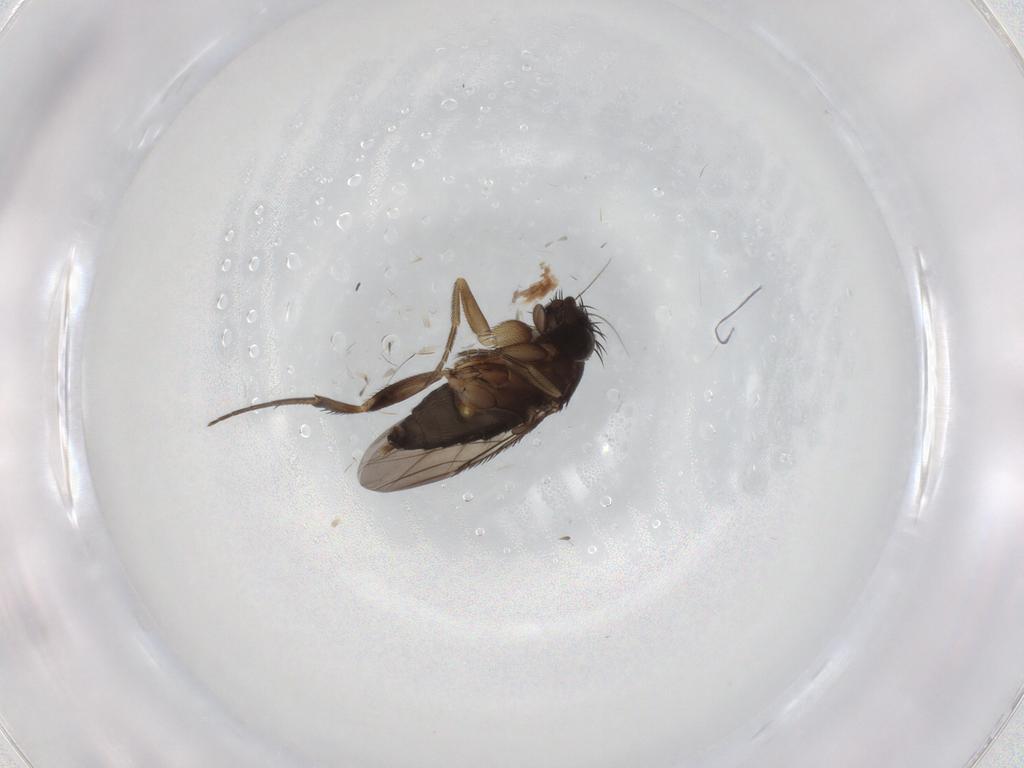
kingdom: Animalia
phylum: Arthropoda
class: Insecta
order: Diptera
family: Phoridae
